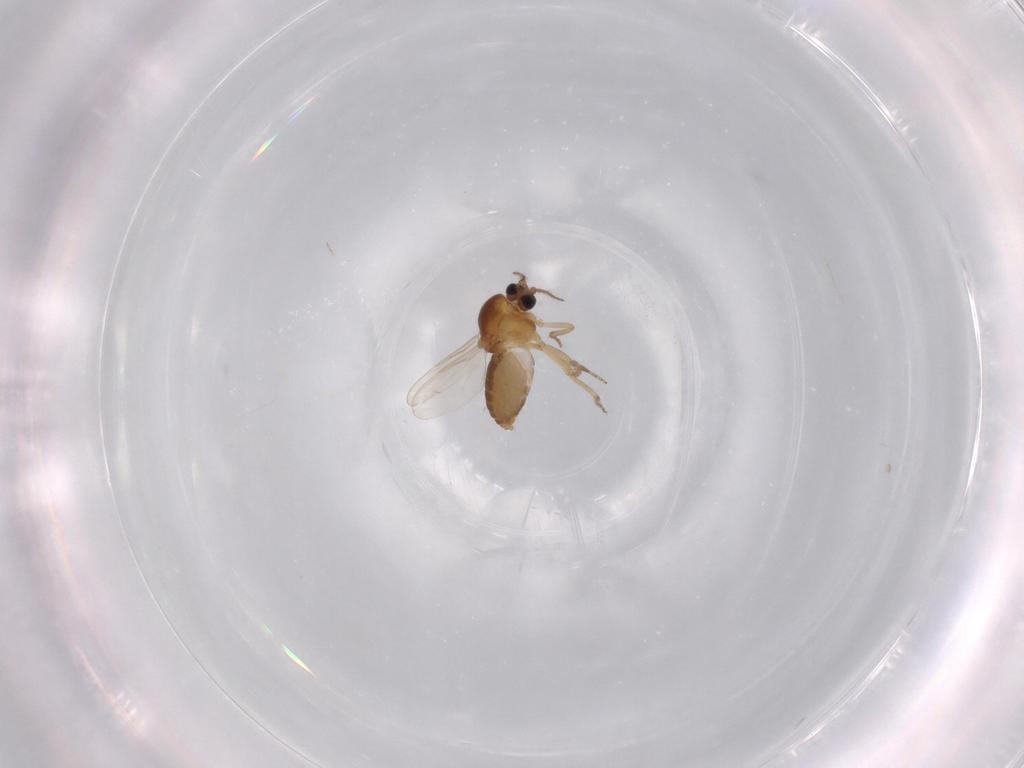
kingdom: Animalia
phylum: Arthropoda
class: Insecta
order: Diptera
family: Ceratopogonidae
